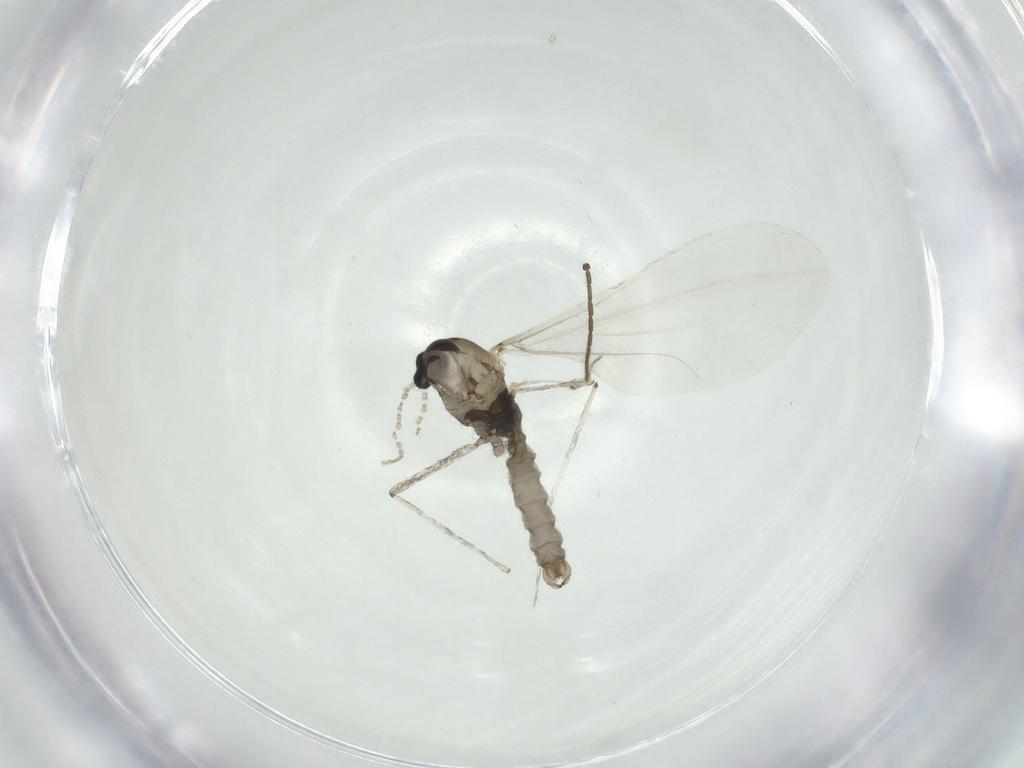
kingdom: Animalia
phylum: Arthropoda
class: Insecta
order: Diptera
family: Cecidomyiidae
